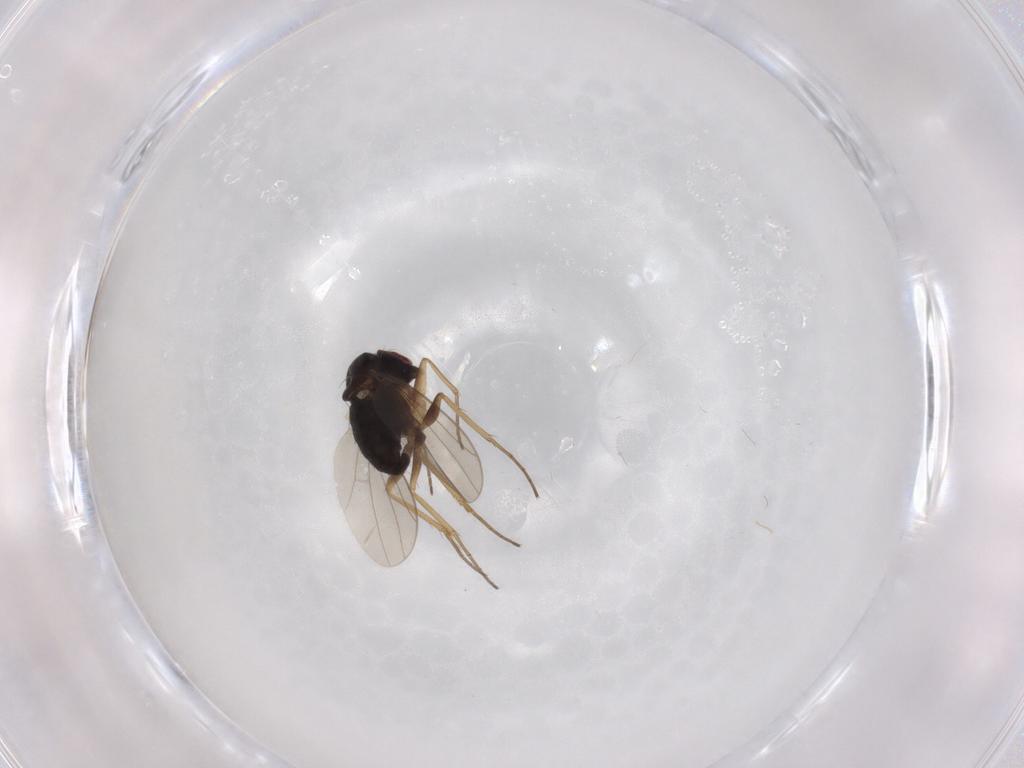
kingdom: Animalia
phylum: Arthropoda
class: Insecta
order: Diptera
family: Dolichopodidae
